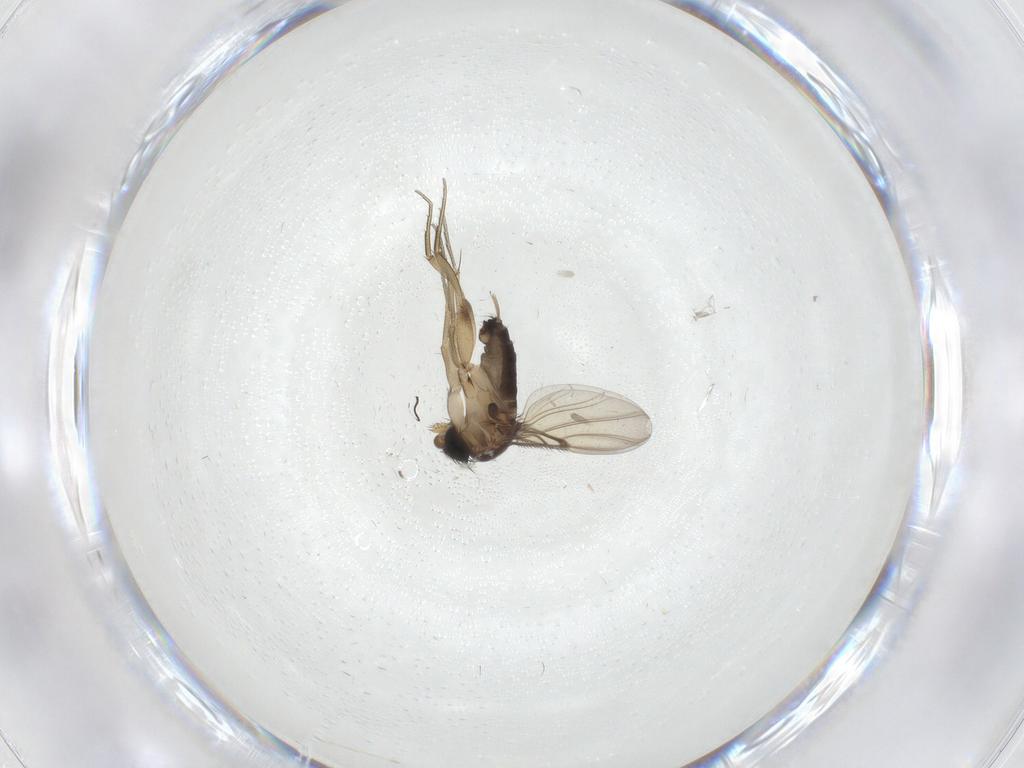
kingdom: Animalia
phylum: Arthropoda
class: Insecta
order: Diptera
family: Phoridae
